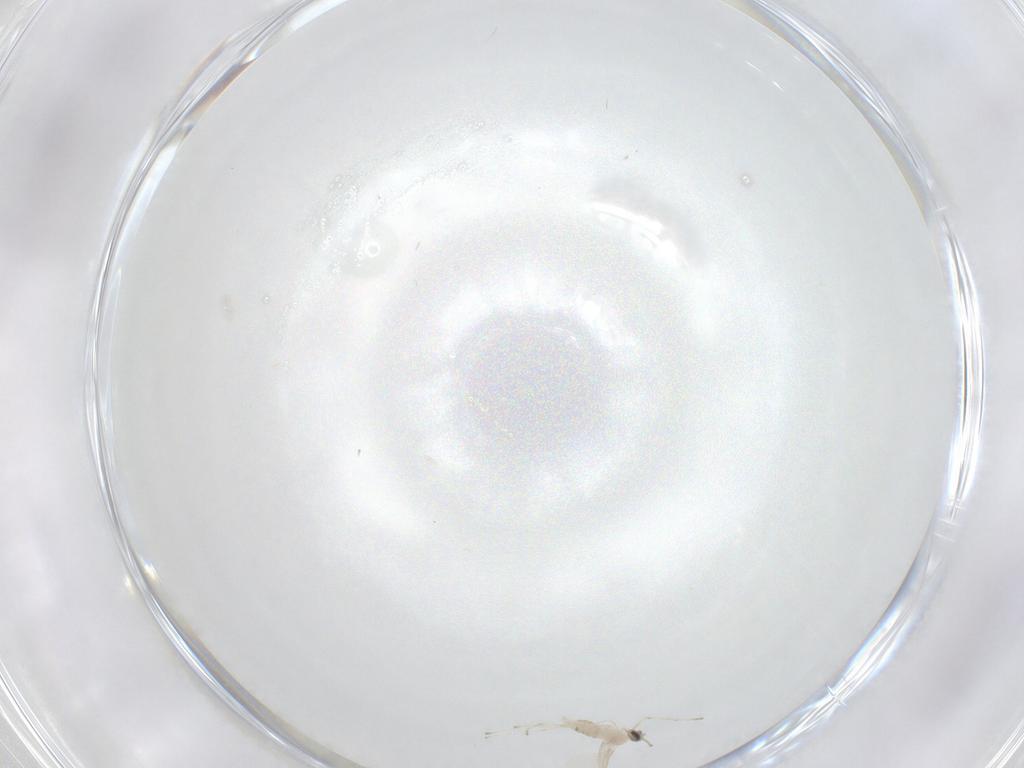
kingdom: Animalia
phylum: Arthropoda
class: Insecta
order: Diptera
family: Cecidomyiidae
